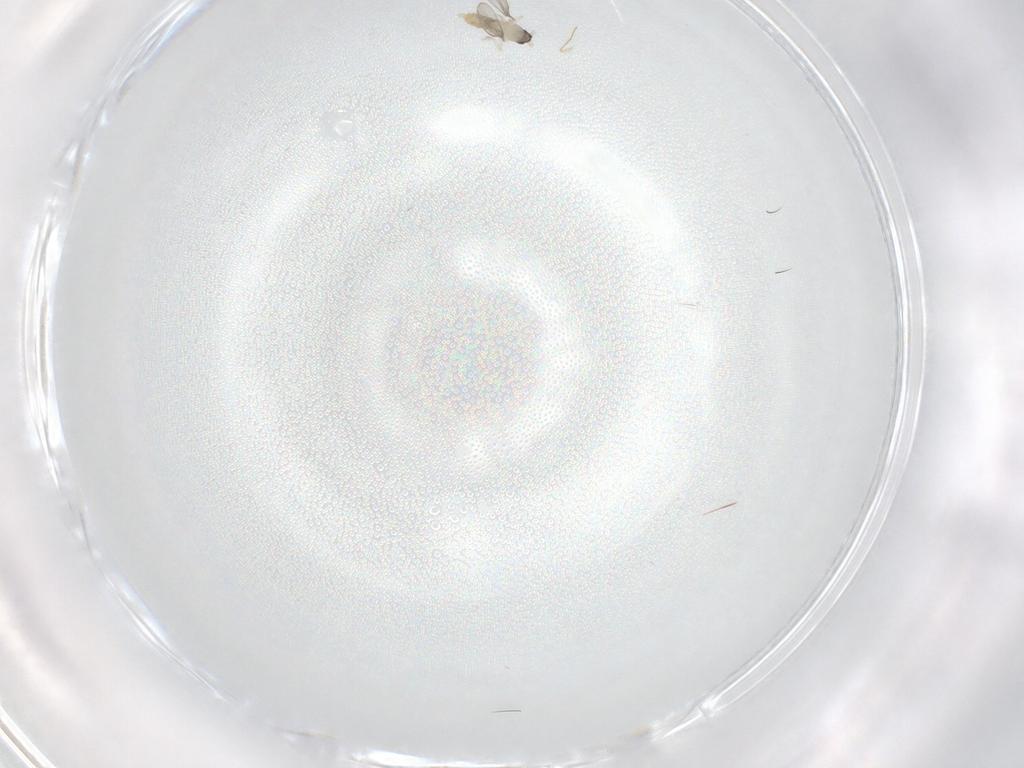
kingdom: Animalia
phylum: Arthropoda
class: Insecta
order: Diptera
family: Cecidomyiidae
